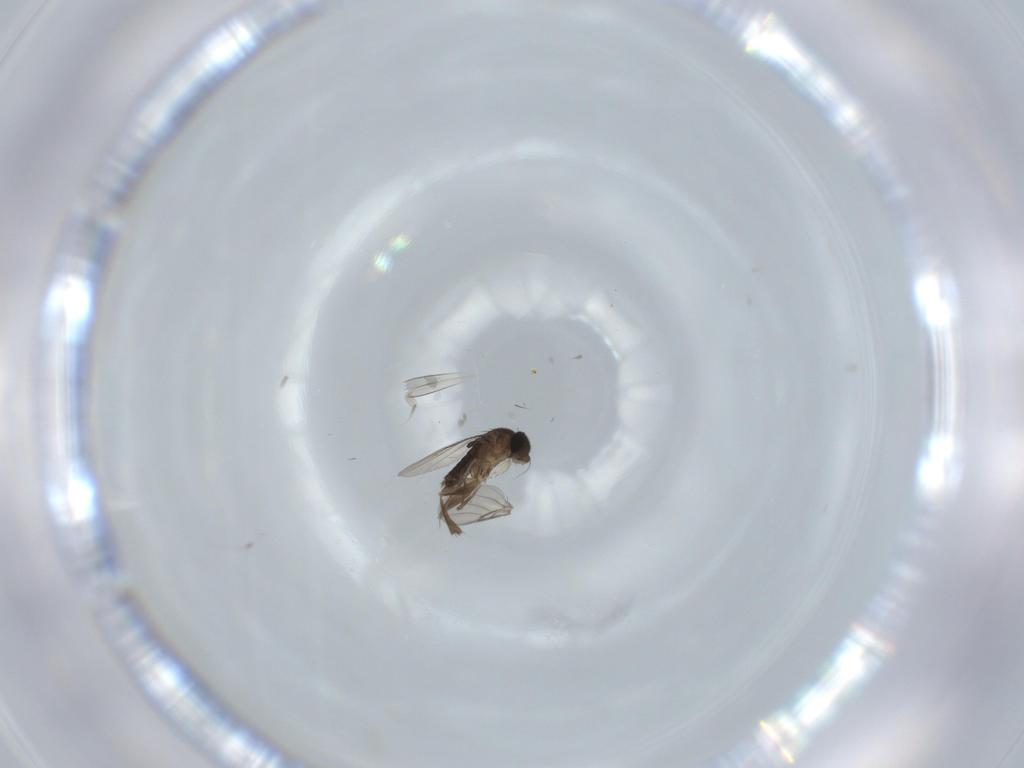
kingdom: Animalia
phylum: Arthropoda
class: Insecta
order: Diptera
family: Phoridae
